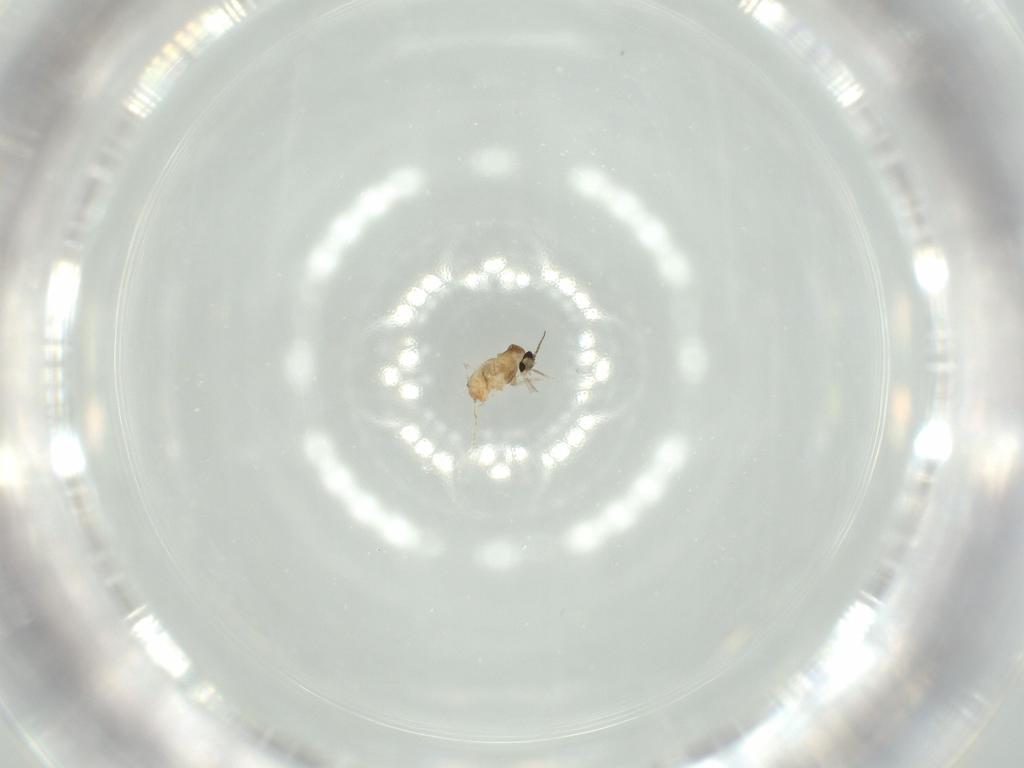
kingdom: Animalia
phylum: Arthropoda
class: Insecta
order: Diptera
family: Cecidomyiidae
